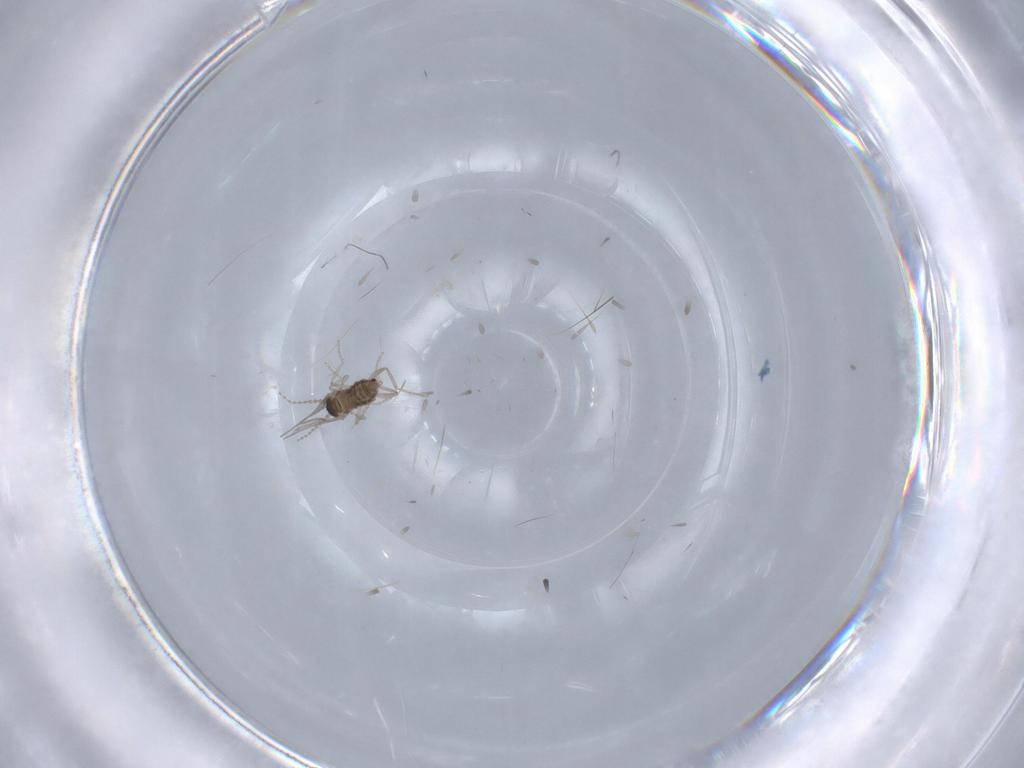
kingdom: Animalia
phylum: Arthropoda
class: Insecta
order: Diptera
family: Cecidomyiidae
